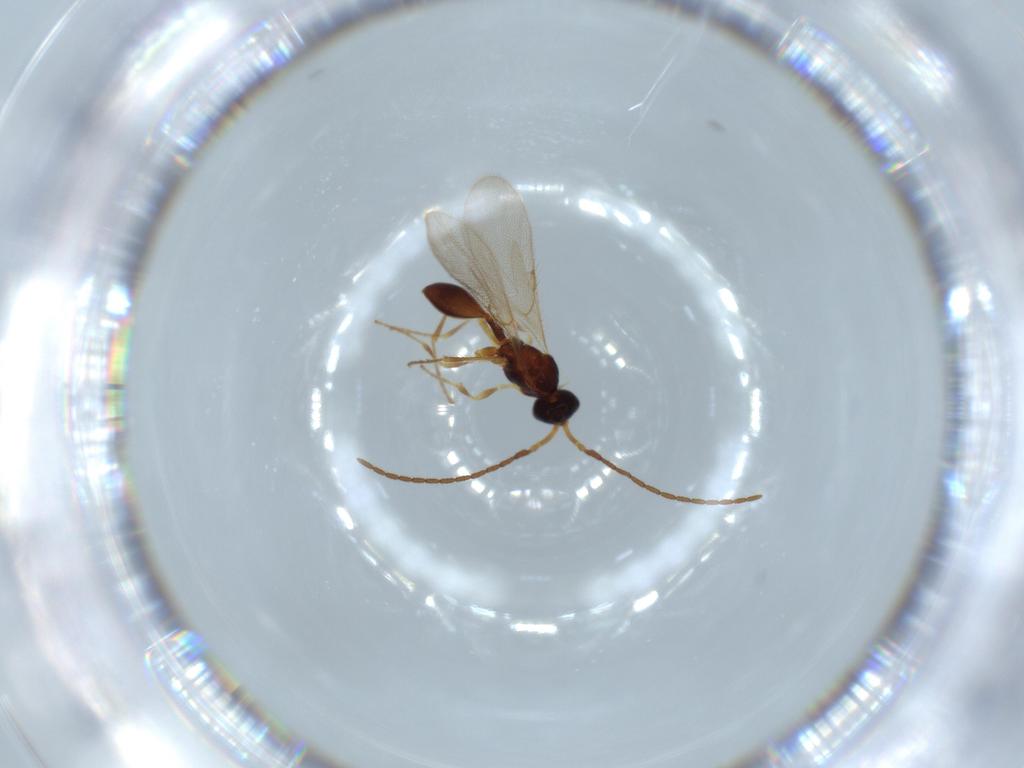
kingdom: Animalia
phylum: Arthropoda
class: Insecta
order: Hymenoptera
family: Diapriidae
